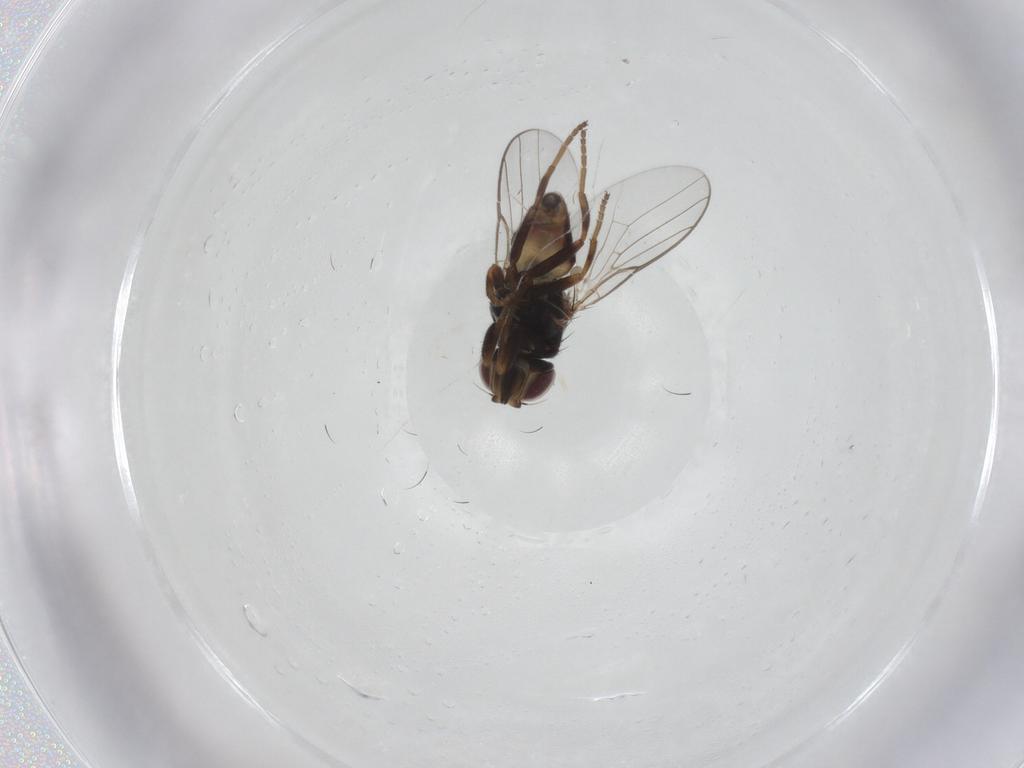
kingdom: Animalia
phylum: Arthropoda
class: Insecta
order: Diptera
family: Chloropidae
